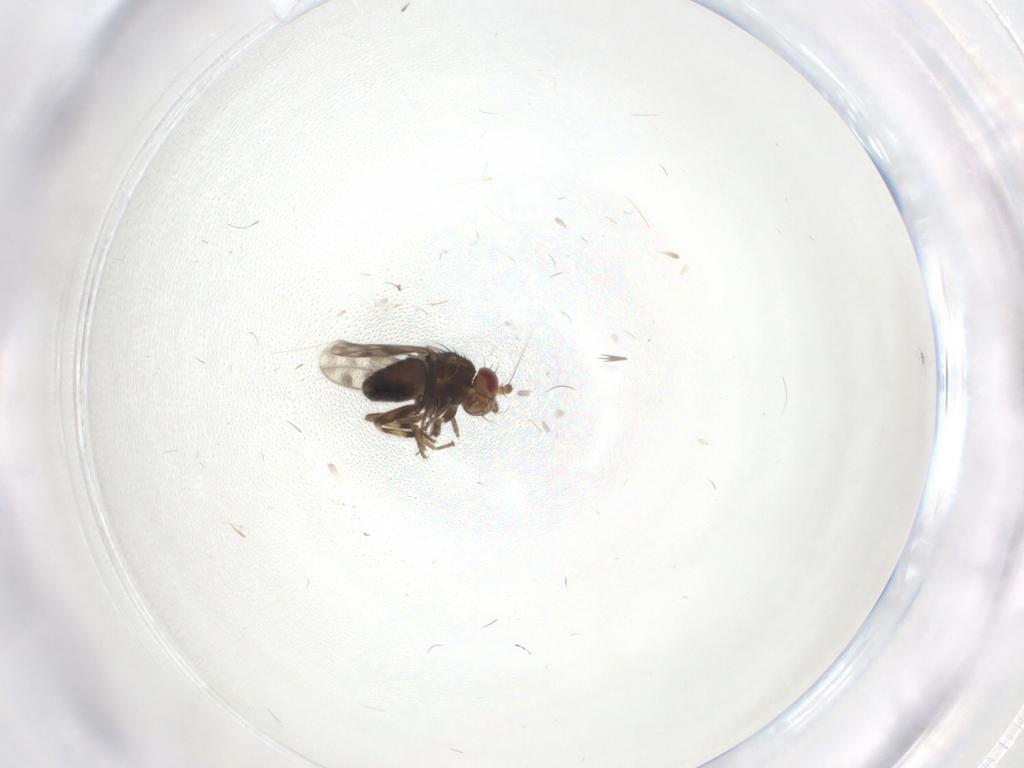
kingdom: Animalia
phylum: Arthropoda
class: Insecta
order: Diptera
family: Sphaeroceridae
